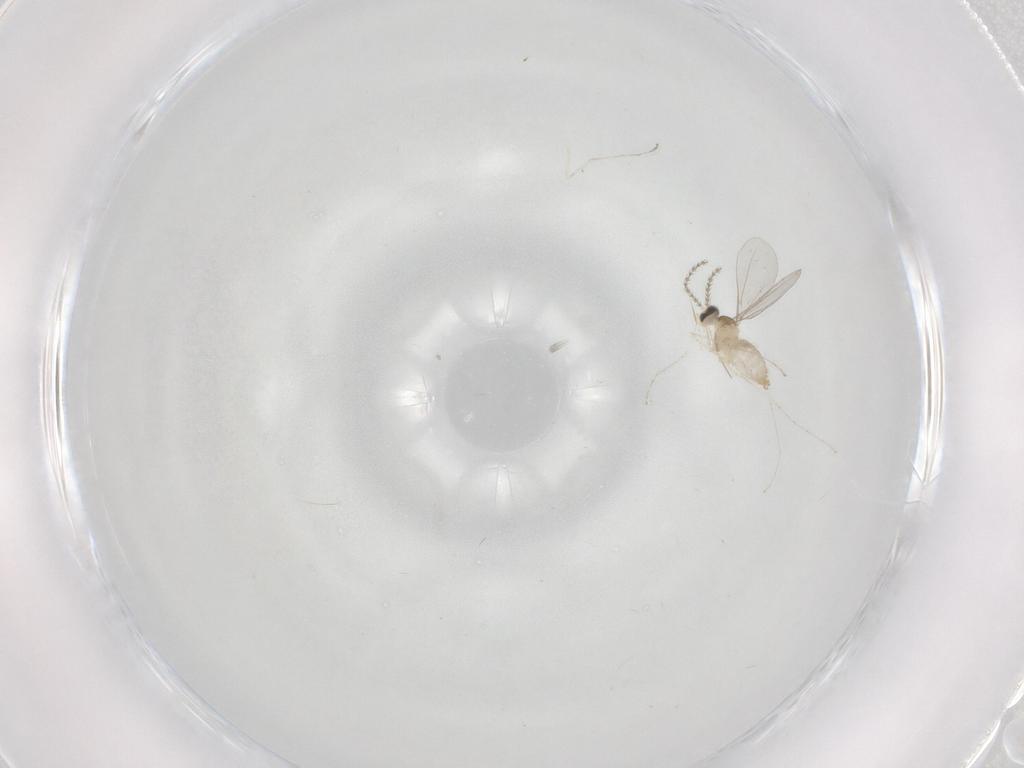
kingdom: Animalia
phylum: Arthropoda
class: Insecta
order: Diptera
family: Cecidomyiidae
